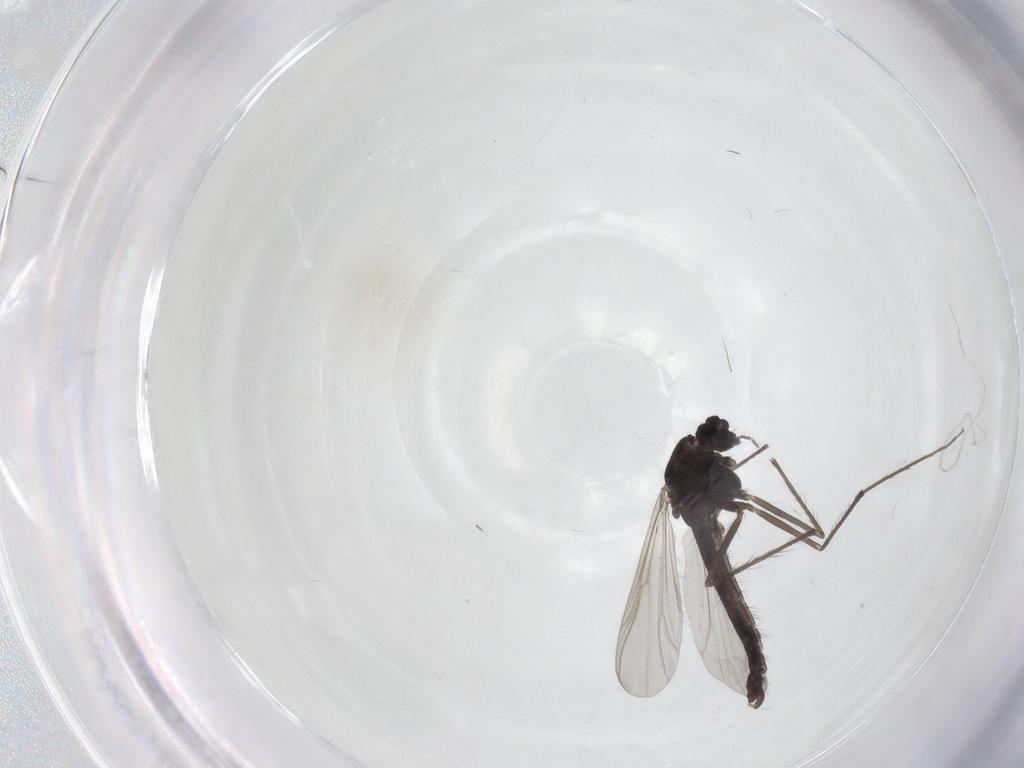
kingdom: Animalia
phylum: Arthropoda
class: Insecta
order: Diptera
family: Chironomidae
